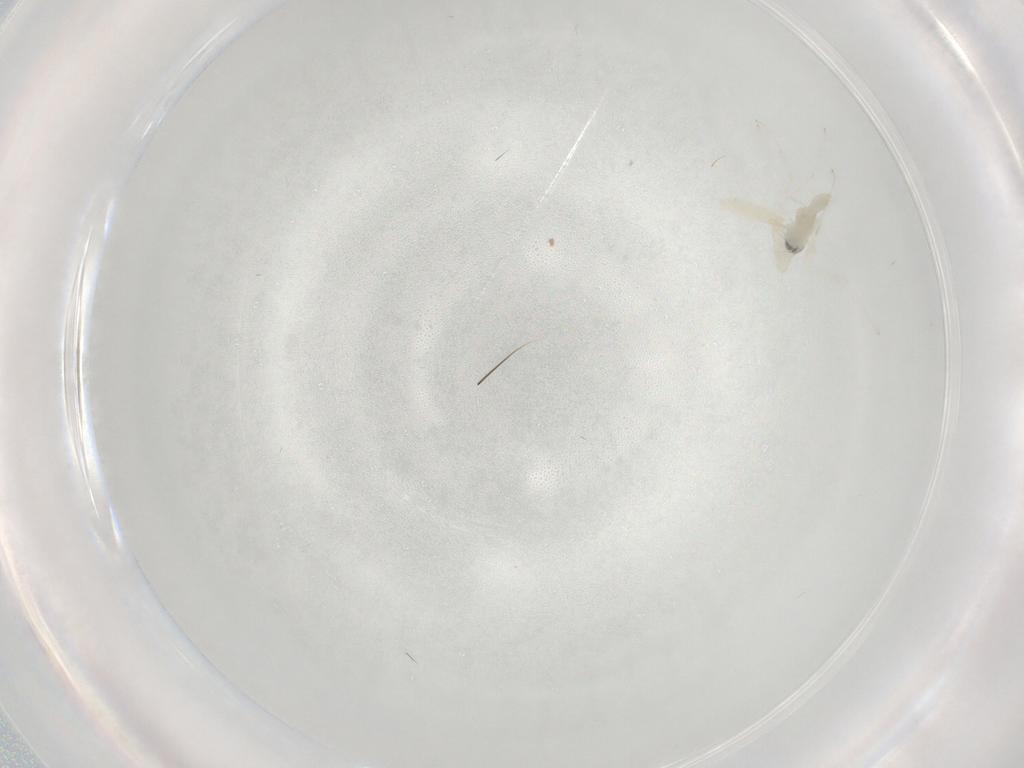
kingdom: Animalia
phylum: Arthropoda
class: Insecta
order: Diptera
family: Cecidomyiidae
